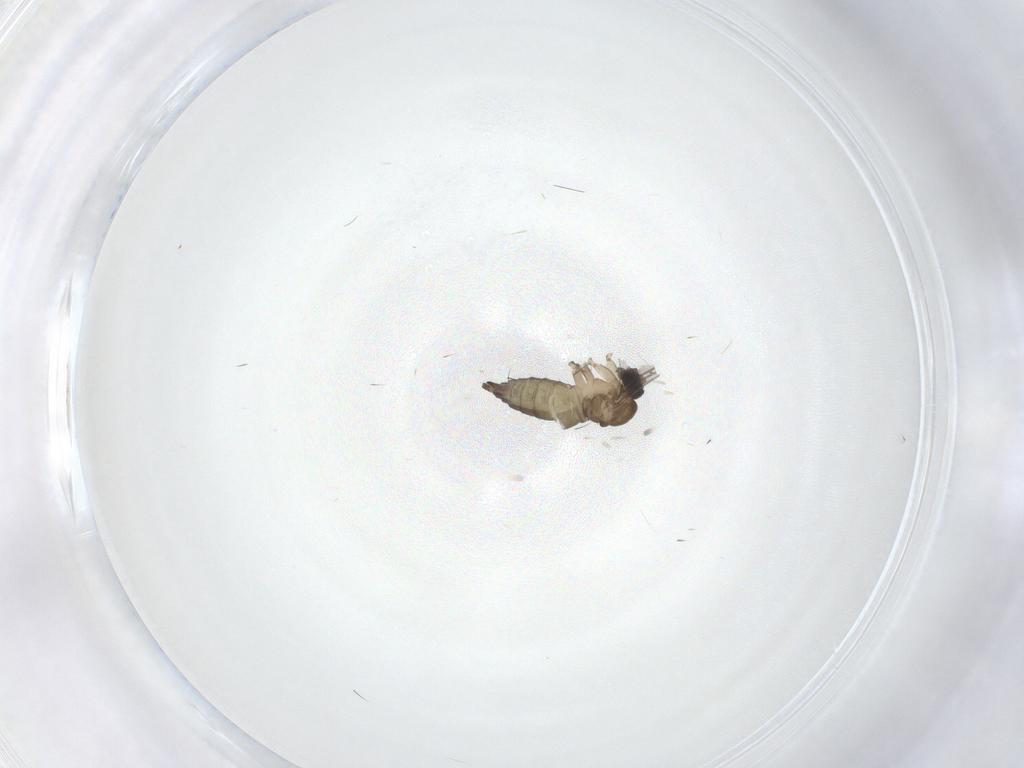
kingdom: Animalia
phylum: Arthropoda
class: Insecta
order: Diptera
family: Sciaridae
